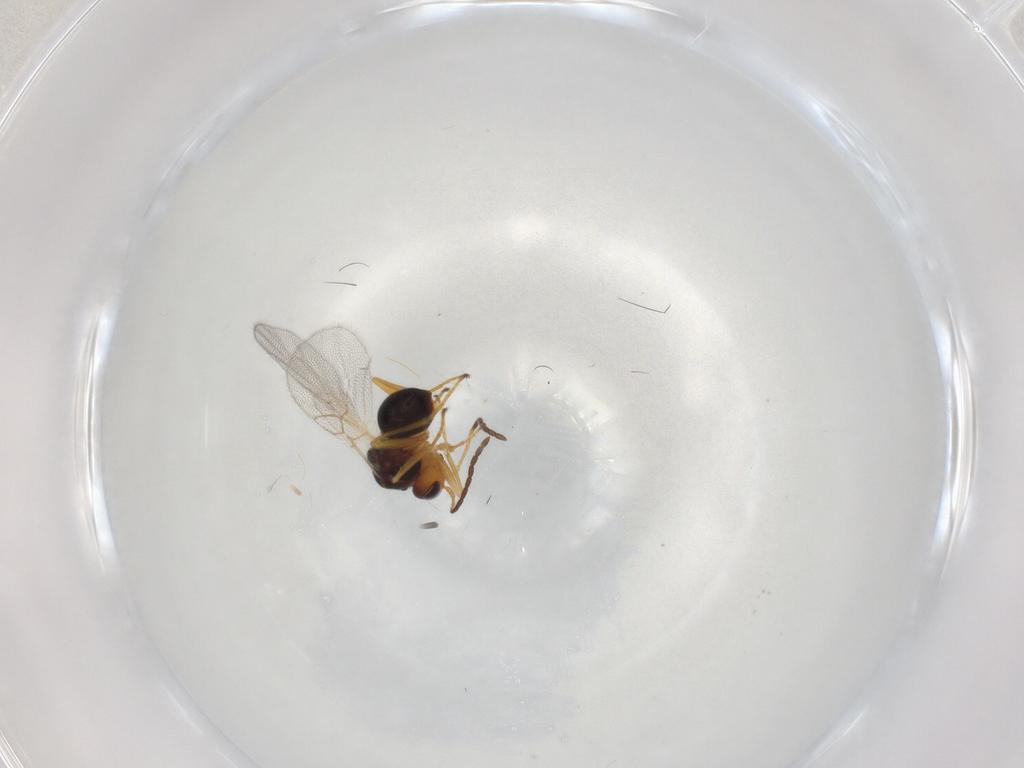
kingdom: Animalia
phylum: Arthropoda
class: Insecta
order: Hymenoptera
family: Figitidae
